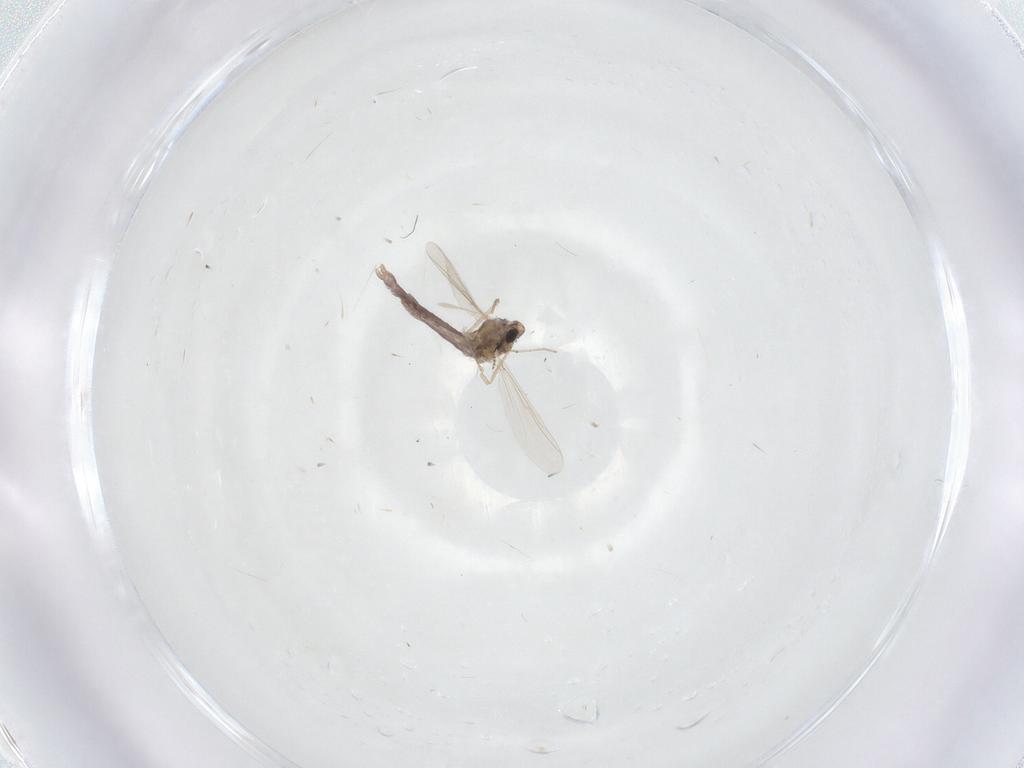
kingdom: Animalia
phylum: Arthropoda
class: Insecta
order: Diptera
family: Chironomidae
